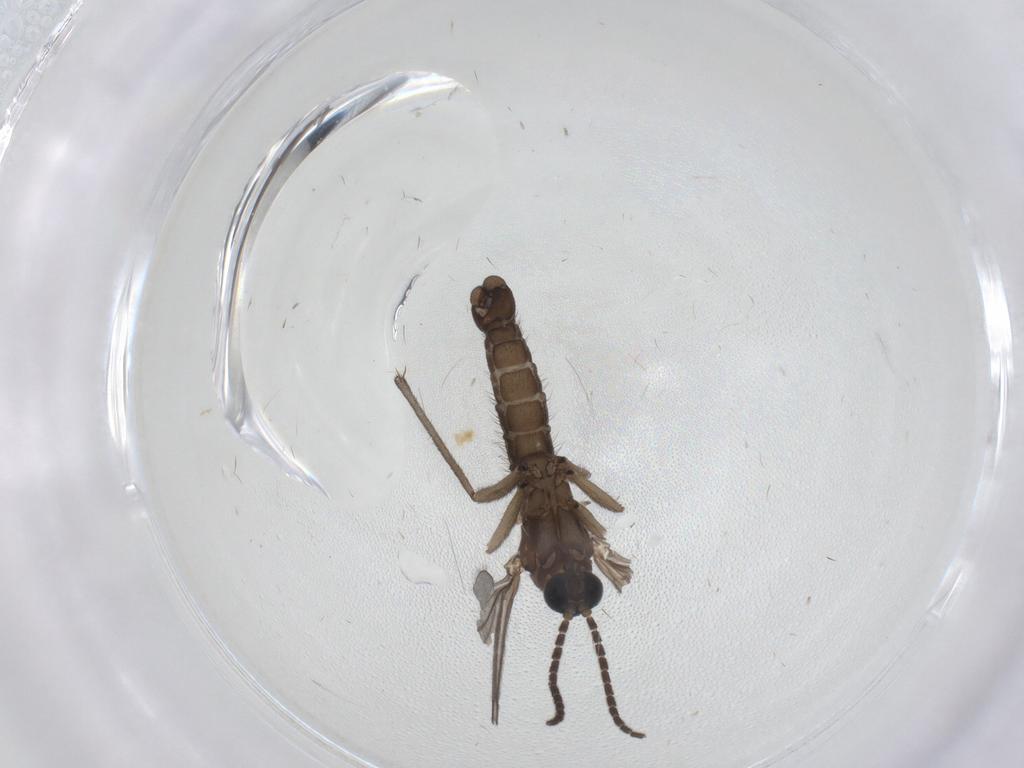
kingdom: Animalia
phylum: Arthropoda
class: Insecta
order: Diptera
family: Sciaridae
